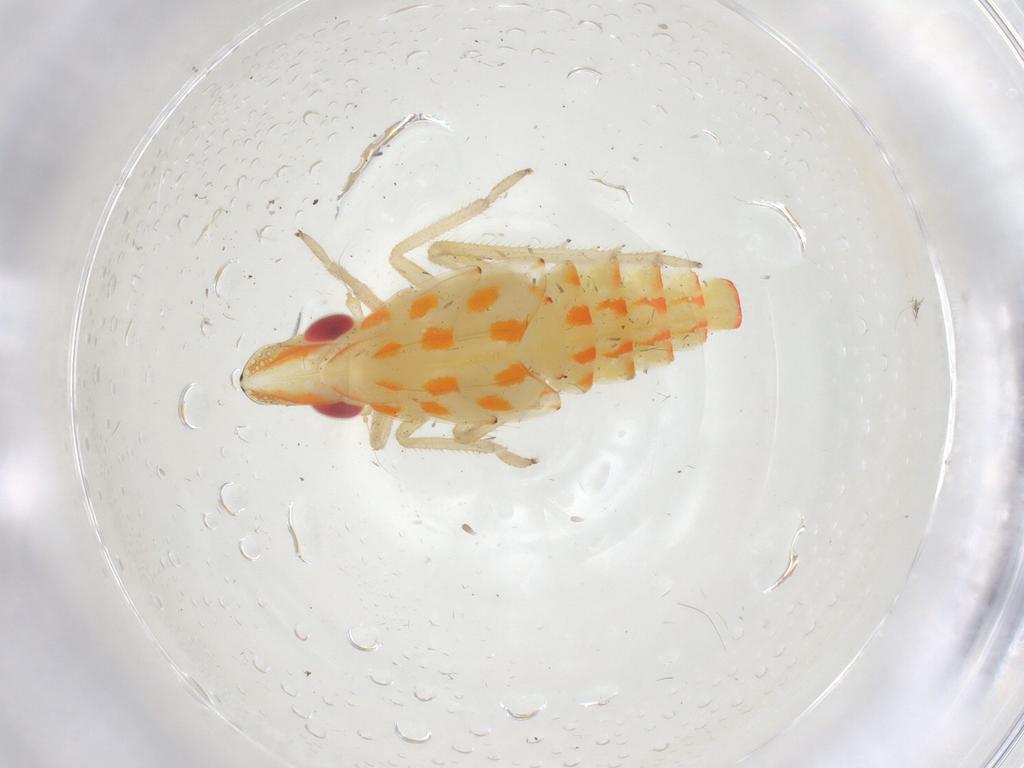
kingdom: Animalia
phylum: Arthropoda
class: Insecta
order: Hemiptera
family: Tropiduchidae
